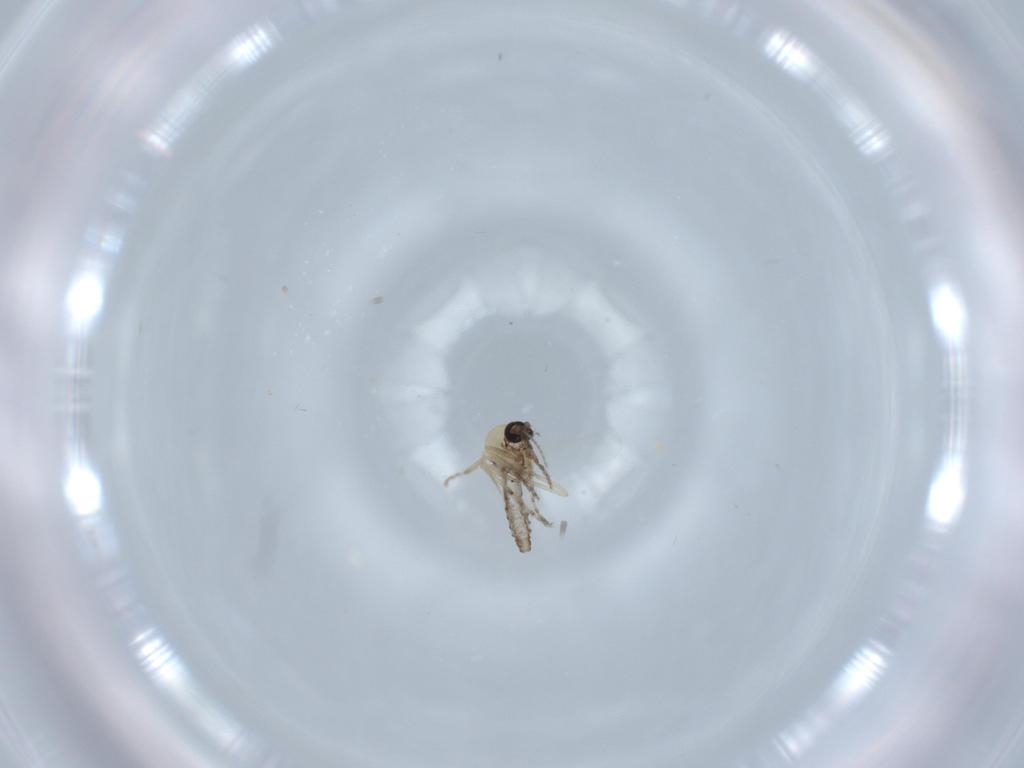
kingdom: Animalia
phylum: Arthropoda
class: Insecta
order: Diptera
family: Ceratopogonidae
